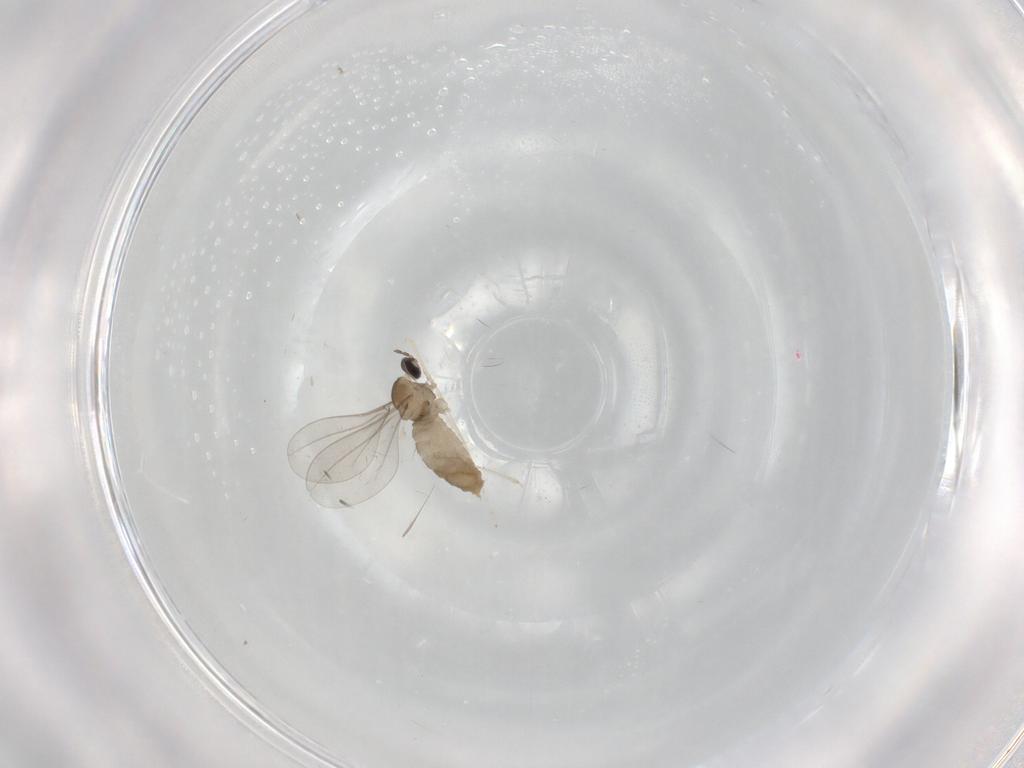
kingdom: Animalia
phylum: Arthropoda
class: Insecta
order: Diptera
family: Chironomidae
